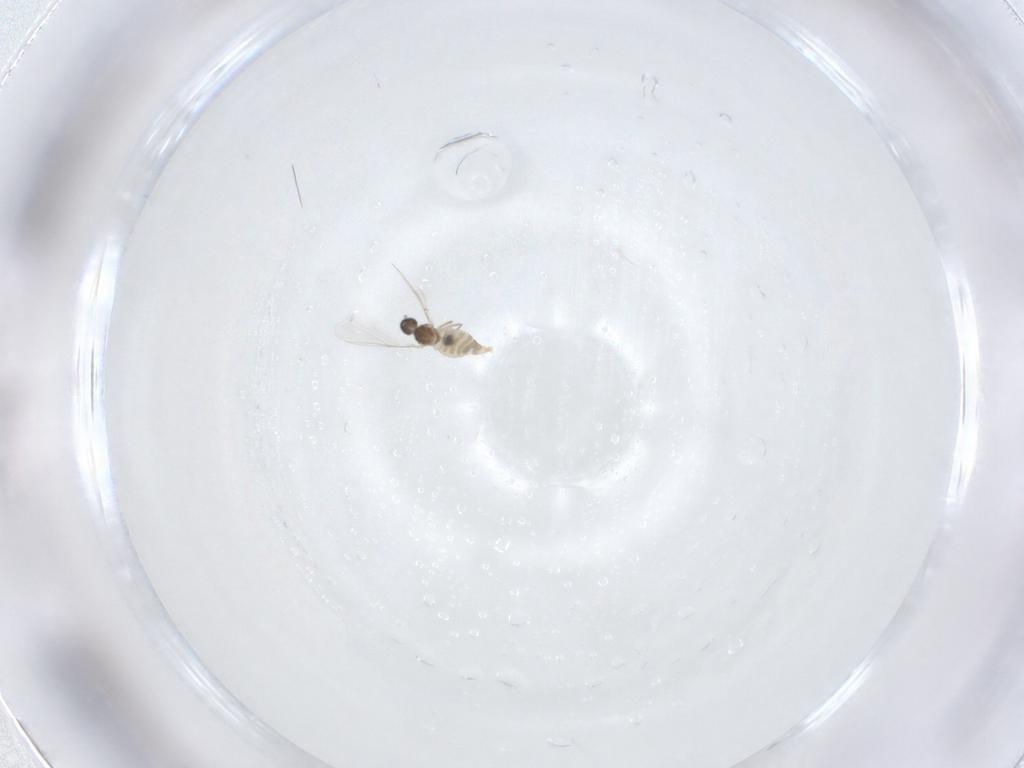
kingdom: Animalia
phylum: Arthropoda
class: Insecta
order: Diptera
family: Cecidomyiidae
